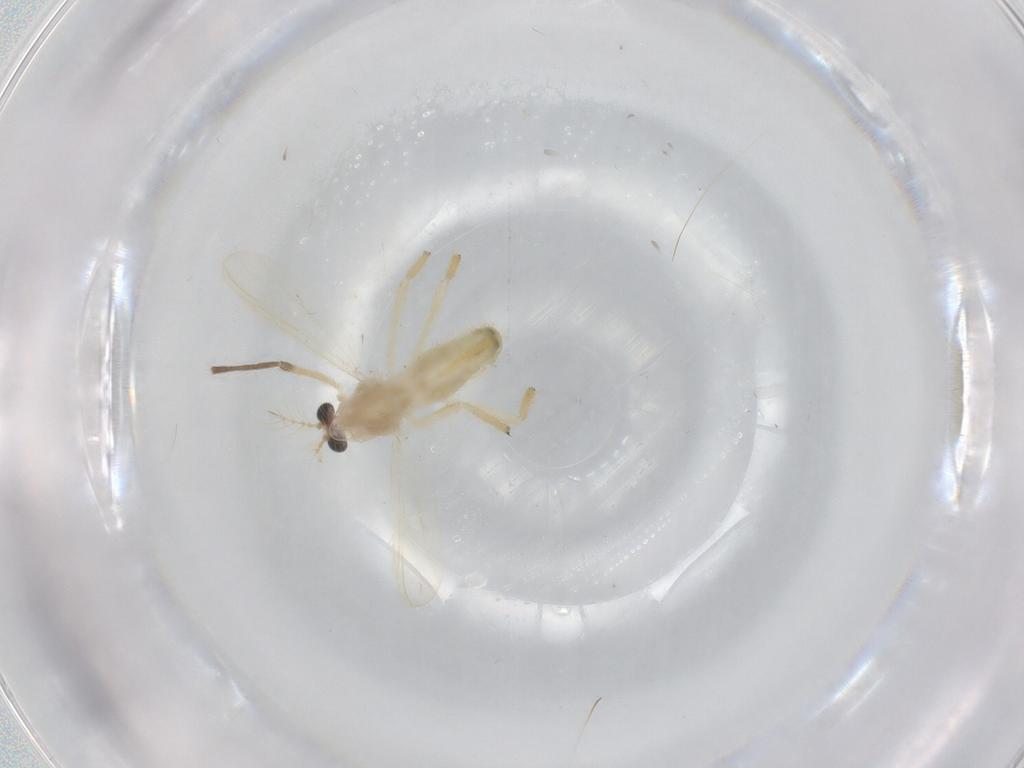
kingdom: Animalia
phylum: Arthropoda
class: Insecta
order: Diptera
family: Chironomidae
